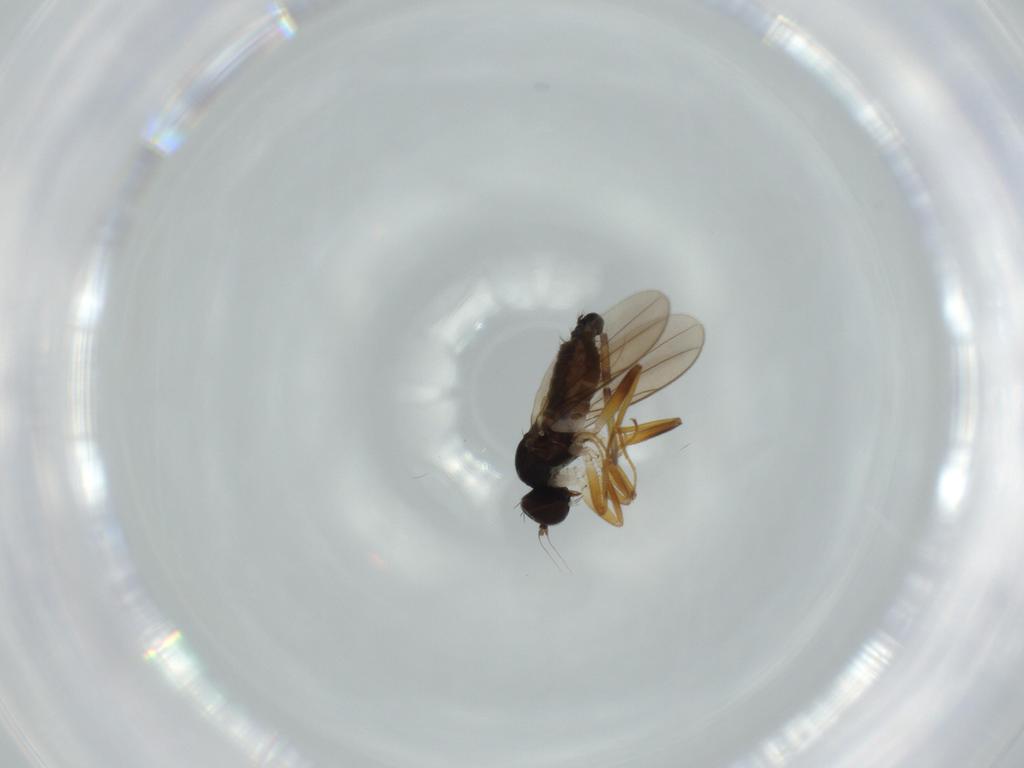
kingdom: Animalia
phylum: Arthropoda
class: Insecta
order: Diptera
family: Hybotidae
